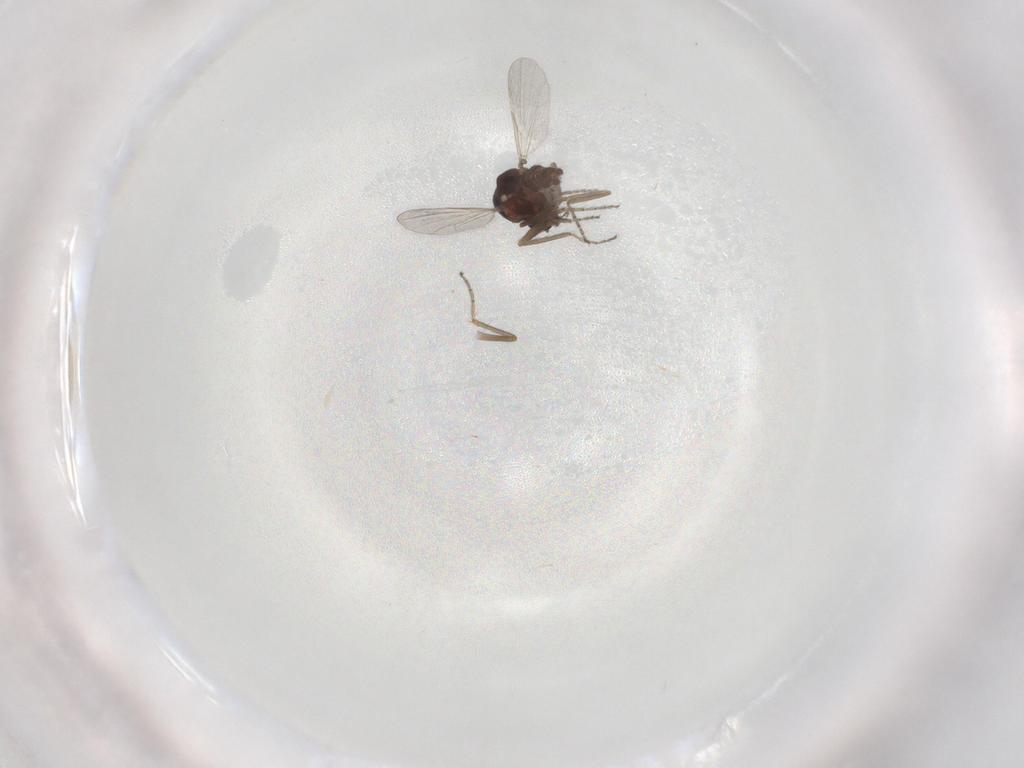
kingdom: Animalia
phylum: Arthropoda
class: Insecta
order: Diptera
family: Ceratopogonidae
